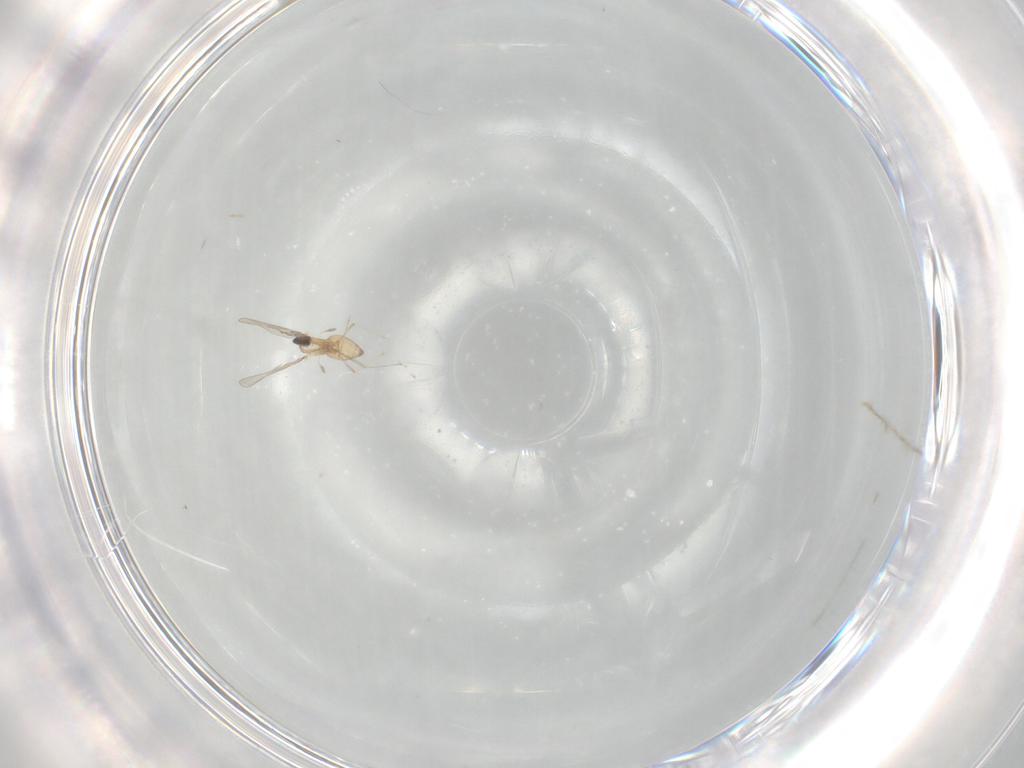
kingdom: Animalia
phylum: Arthropoda
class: Insecta
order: Diptera
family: Cecidomyiidae
